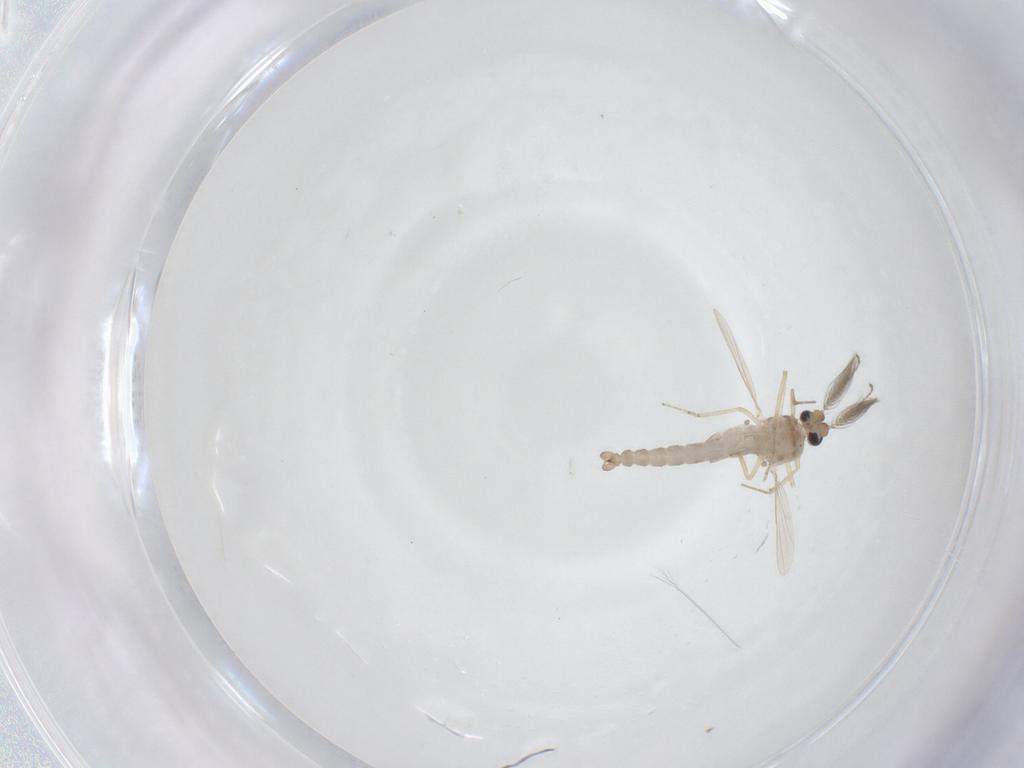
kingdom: Animalia
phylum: Arthropoda
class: Insecta
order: Diptera
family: Ceratopogonidae
